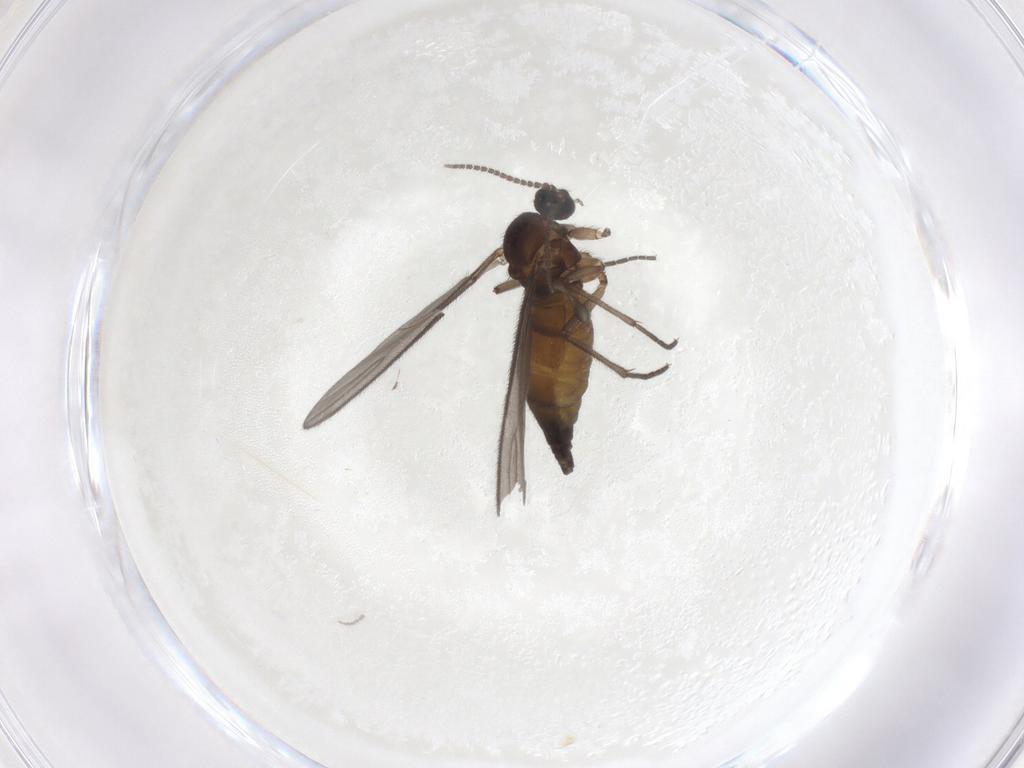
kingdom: Animalia
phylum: Arthropoda
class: Insecta
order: Diptera
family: Sciaridae
